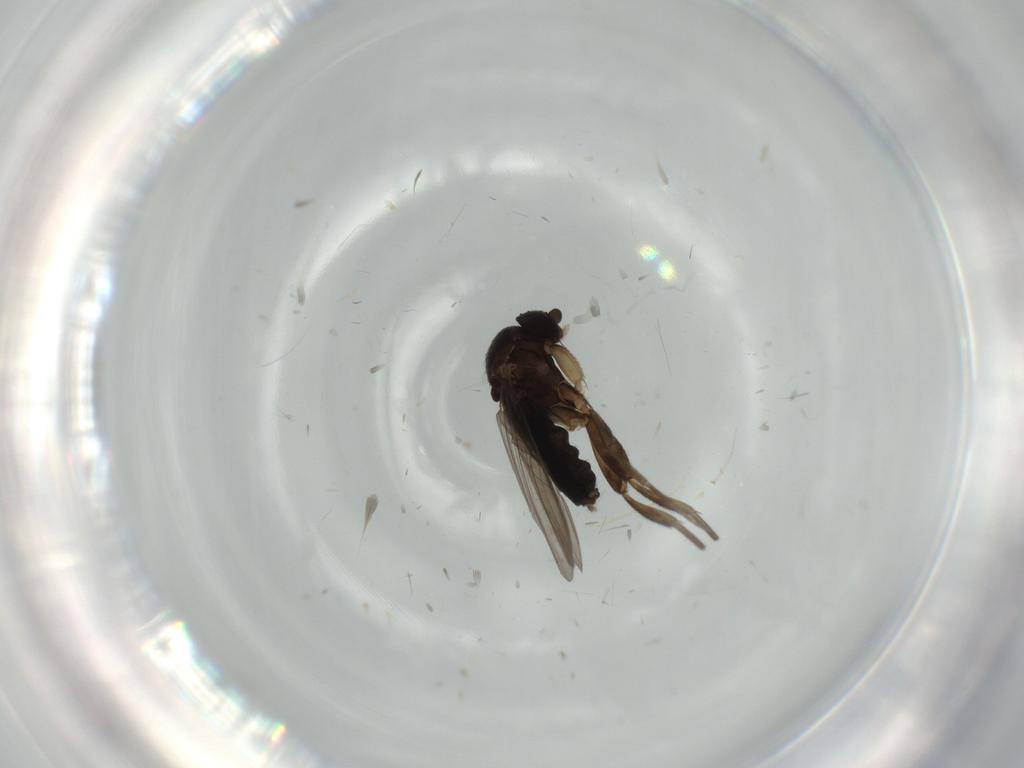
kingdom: Animalia
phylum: Arthropoda
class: Insecta
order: Diptera
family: Phoridae
